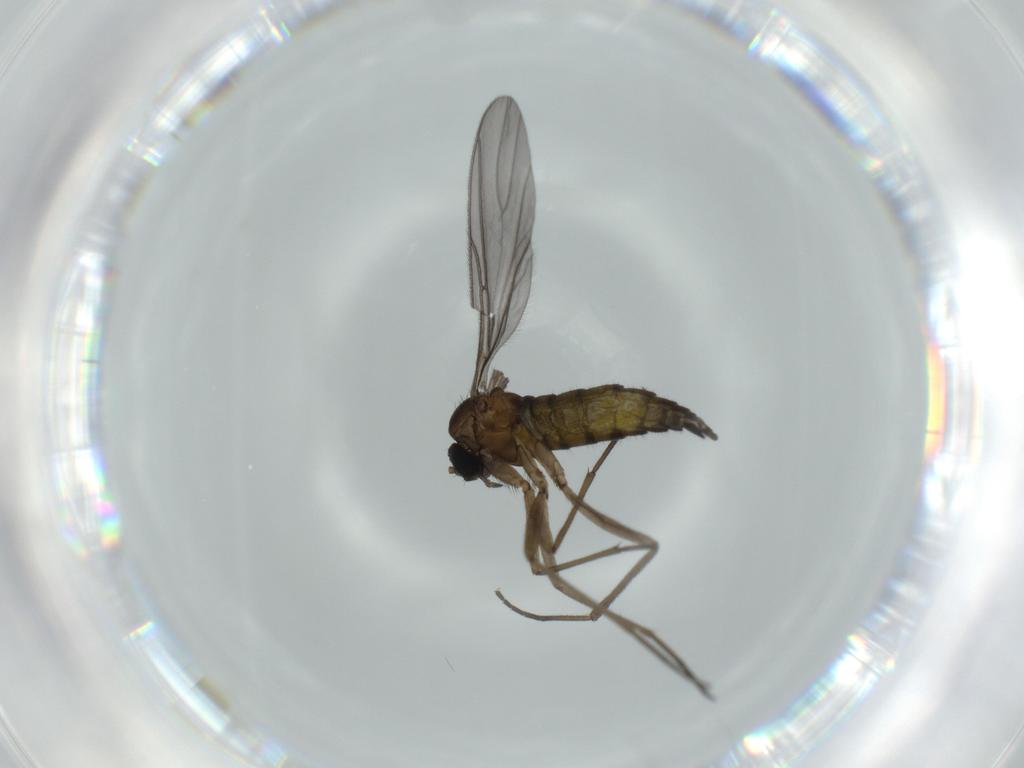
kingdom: Animalia
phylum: Arthropoda
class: Insecta
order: Diptera
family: Sciaridae
